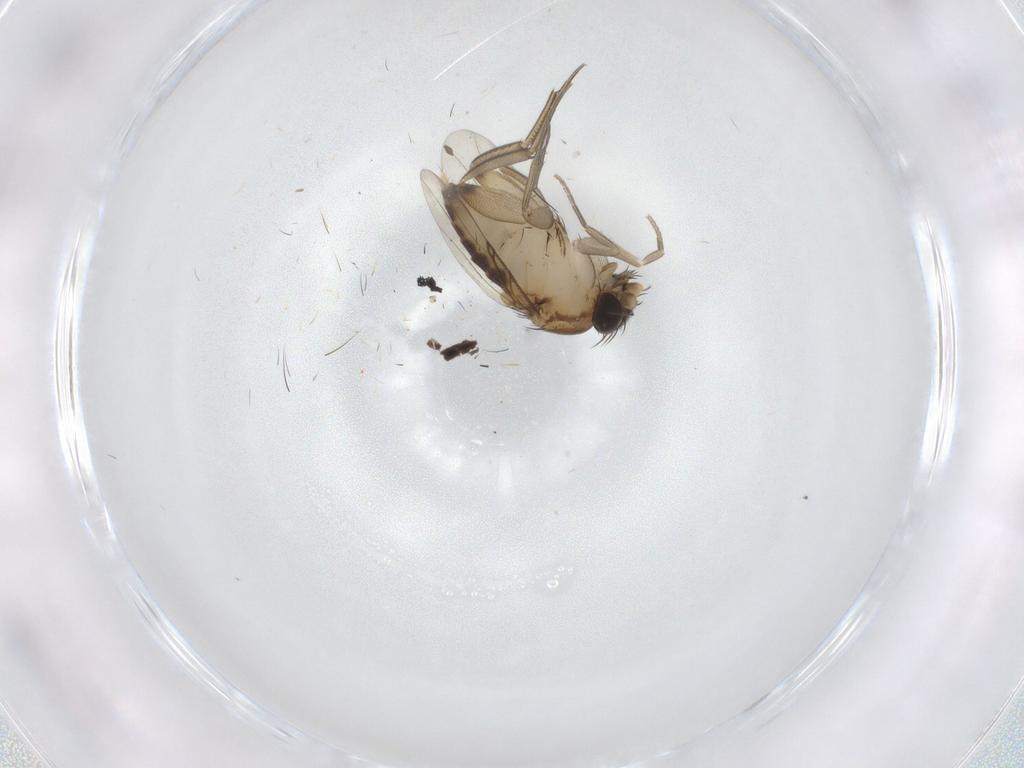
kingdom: Animalia
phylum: Arthropoda
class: Insecta
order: Diptera
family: Phoridae
